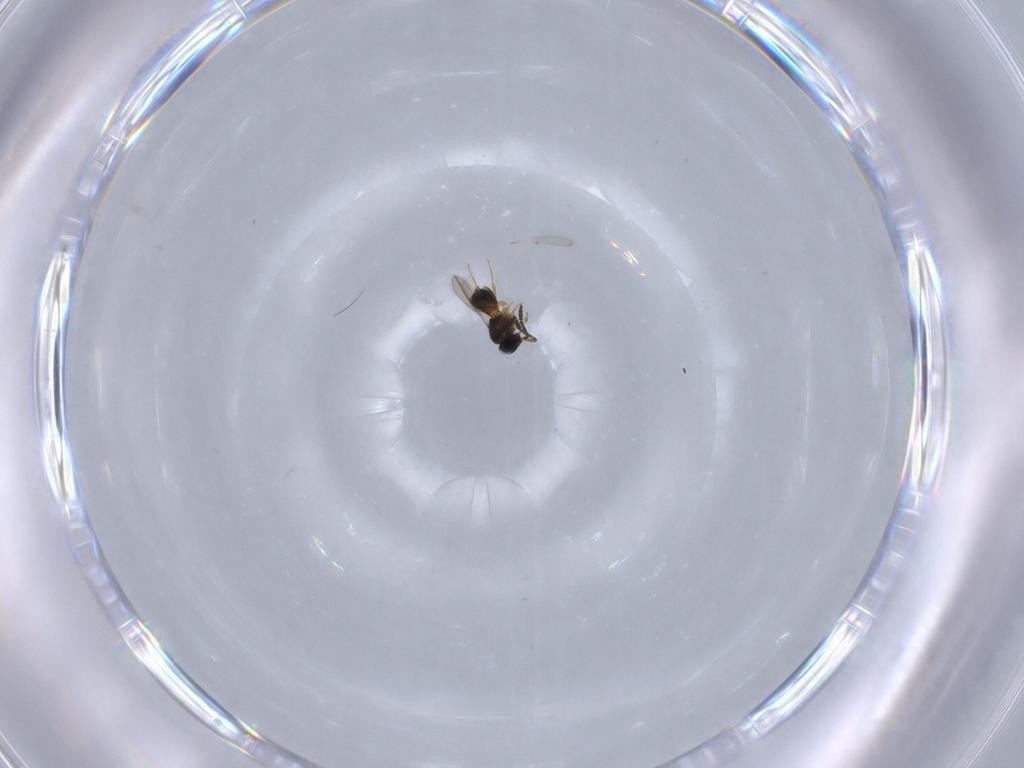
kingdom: Animalia
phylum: Arthropoda
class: Insecta
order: Hymenoptera
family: Scelionidae
